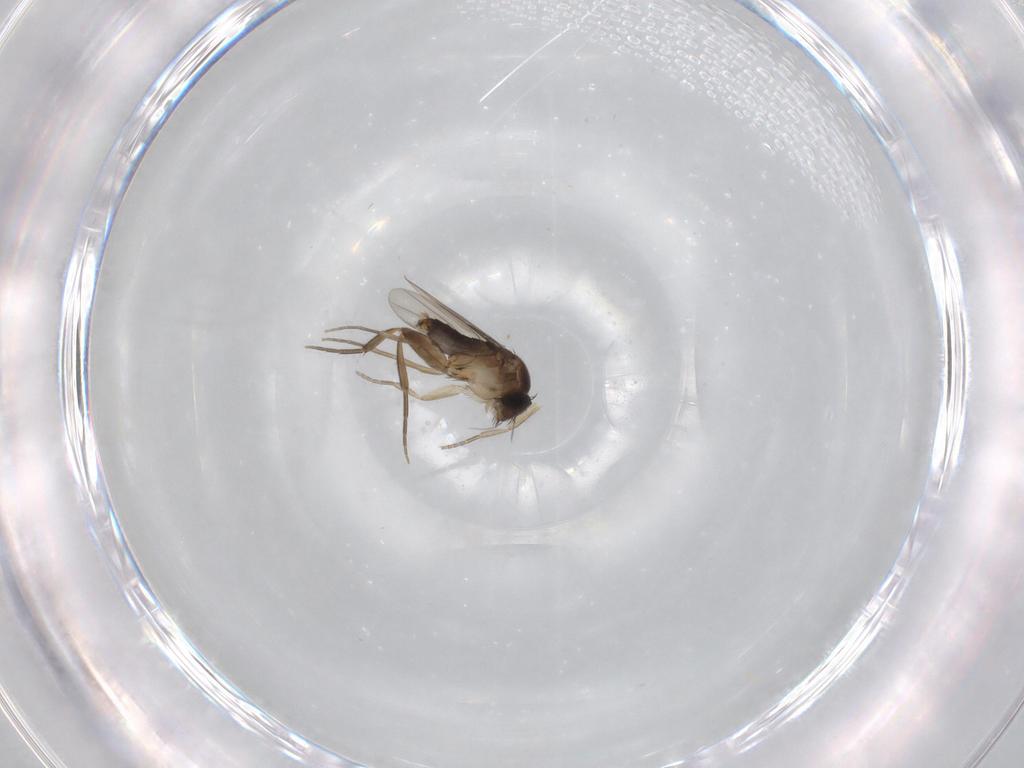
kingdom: Animalia
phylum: Arthropoda
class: Insecta
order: Diptera
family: Phoridae
